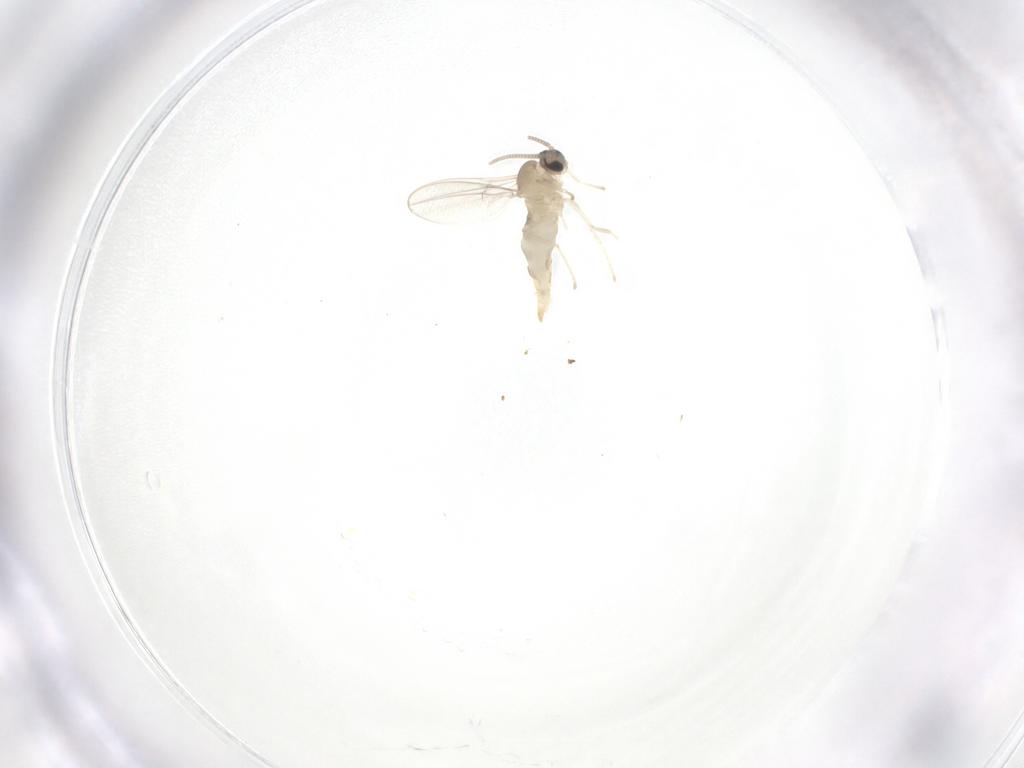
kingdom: Animalia
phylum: Arthropoda
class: Insecta
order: Diptera
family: Cecidomyiidae
